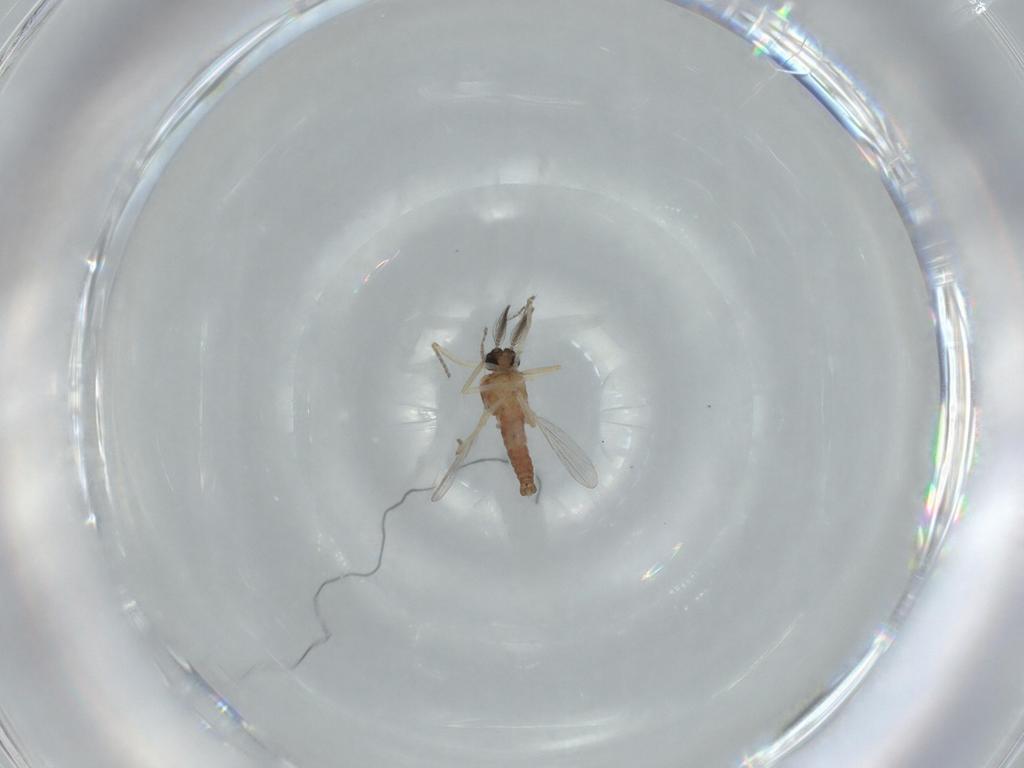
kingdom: Animalia
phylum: Arthropoda
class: Insecta
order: Diptera
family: Ceratopogonidae
